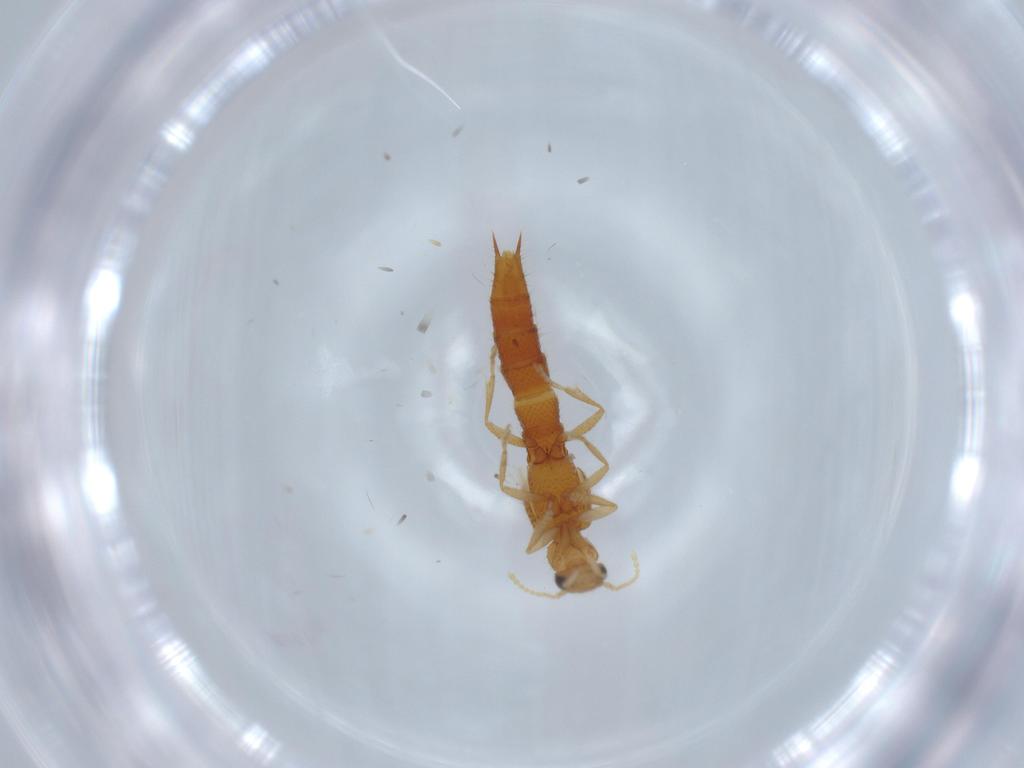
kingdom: Animalia
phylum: Arthropoda
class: Insecta
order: Coleoptera
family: Staphylinidae
